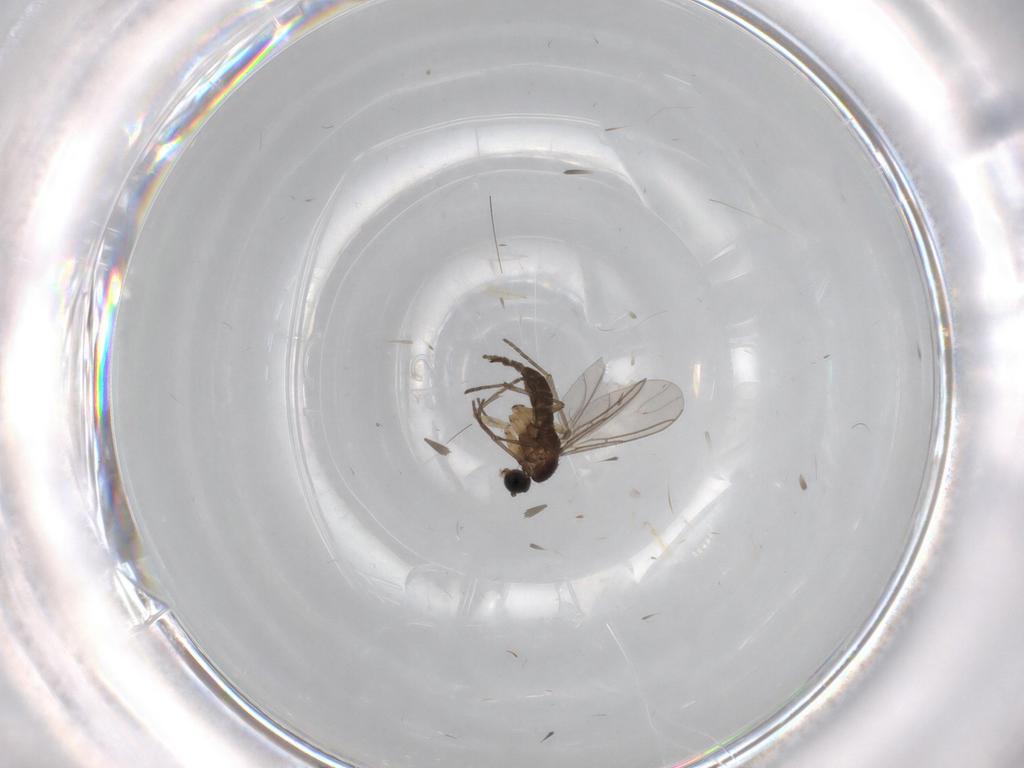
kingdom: Animalia
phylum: Arthropoda
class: Insecta
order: Diptera
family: Sciaridae
